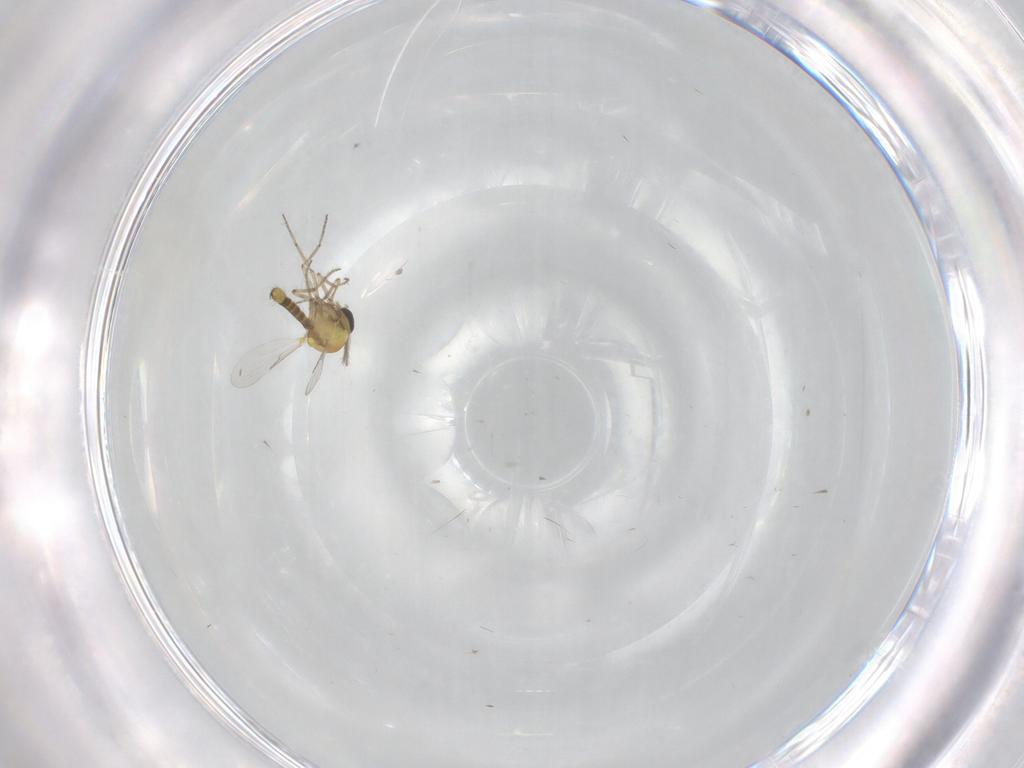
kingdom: Animalia
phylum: Arthropoda
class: Insecta
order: Diptera
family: Ceratopogonidae
